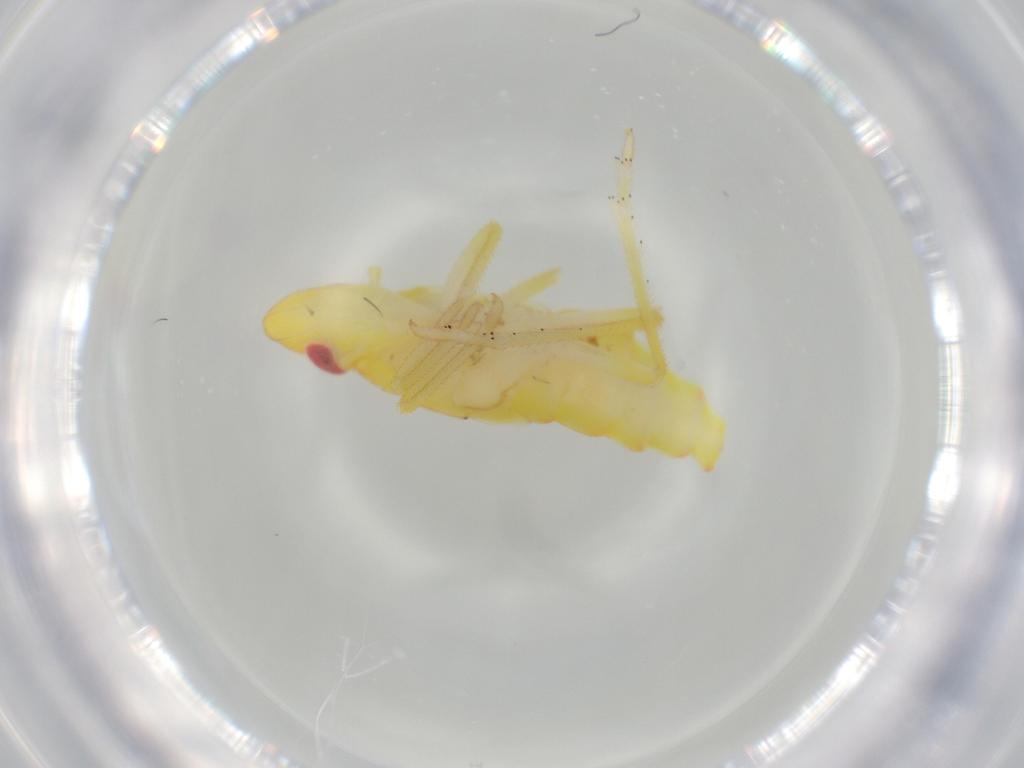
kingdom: Animalia
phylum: Arthropoda
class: Insecta
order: Hemiptera
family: Tropiduchidae
